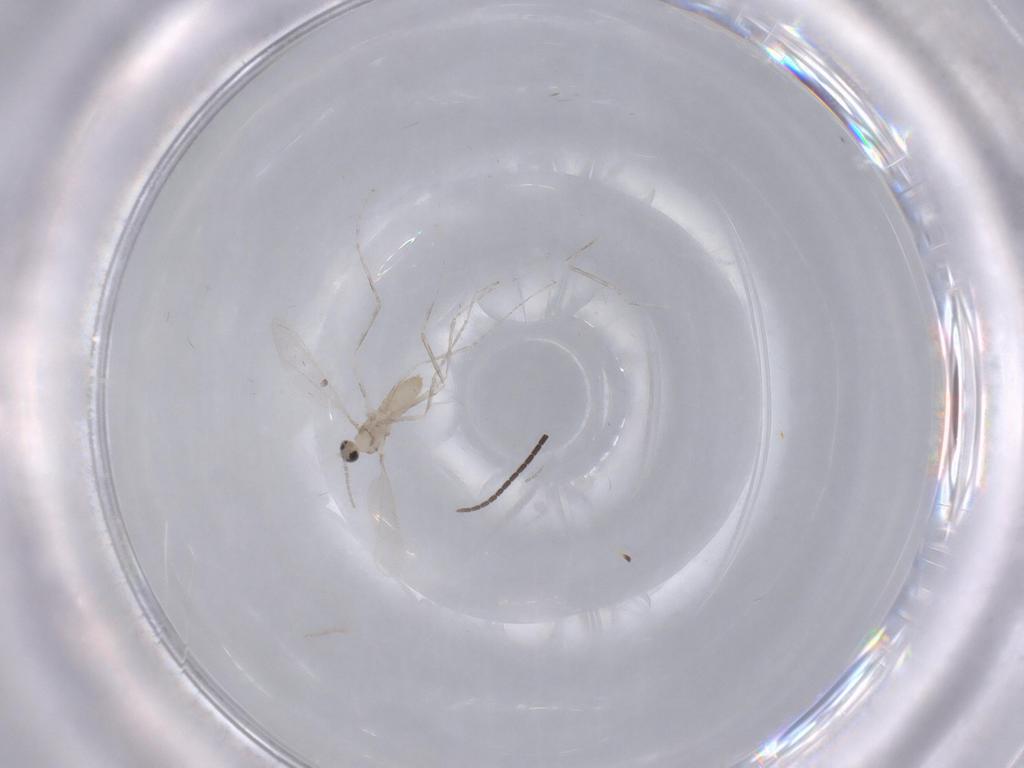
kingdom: Animalia
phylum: Arthropoda
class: Insecta
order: Diptera
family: Cecidomyiidae
